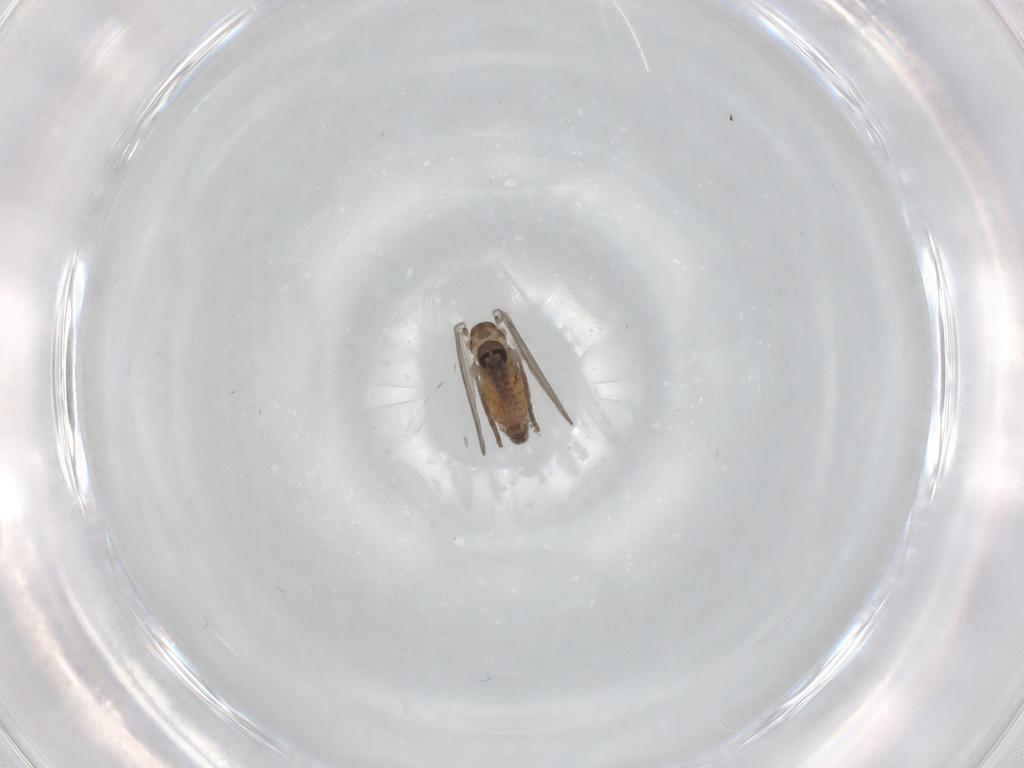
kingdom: Animalia
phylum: Arthropoda
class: Insecta
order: Diptera
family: Psychodidae
